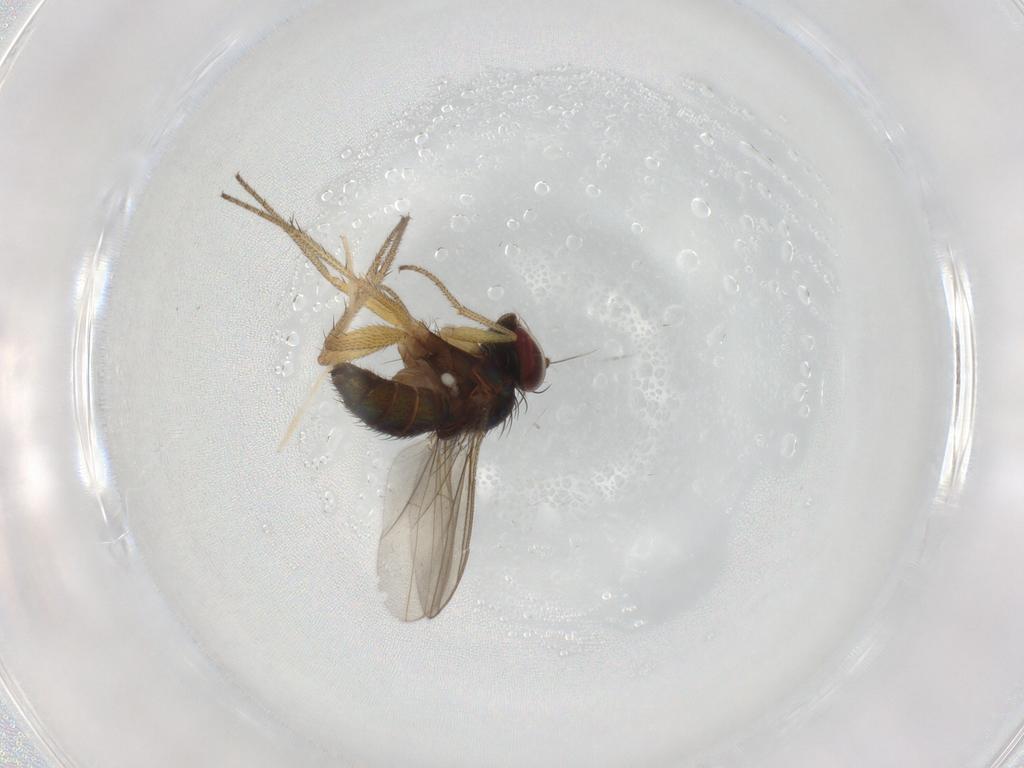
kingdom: Animalia
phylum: Arthropoda
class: Insecta
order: Diptera
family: Chironomidae
